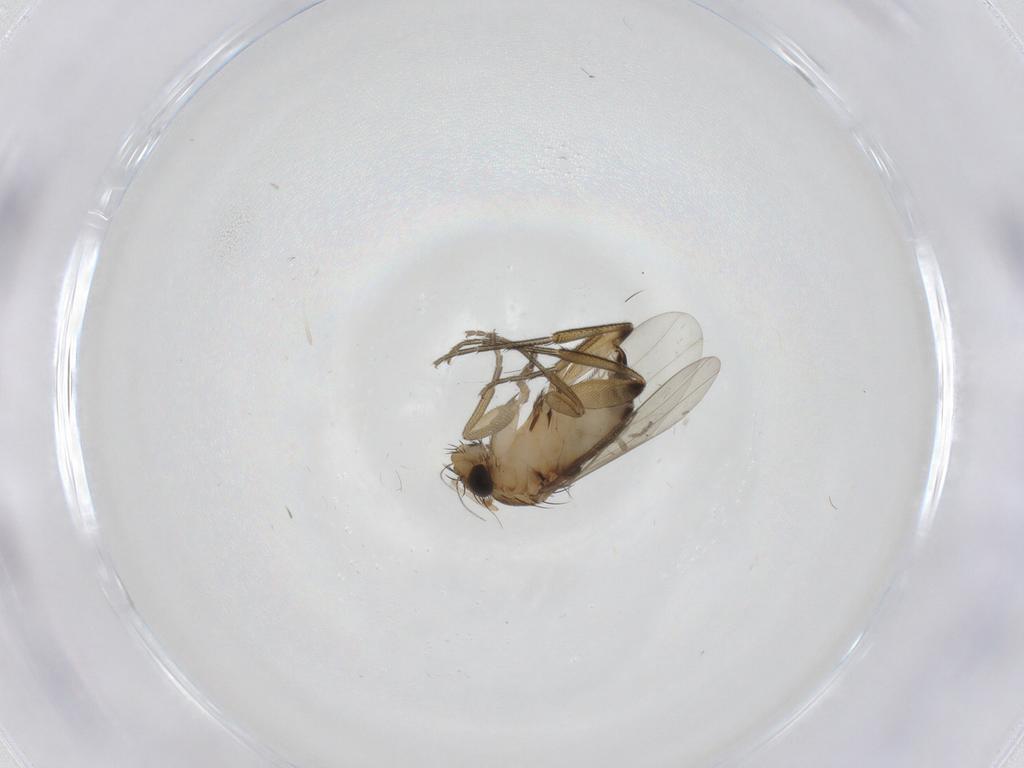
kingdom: Animalia
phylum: Arthropoda
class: Insecta
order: Diptera
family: Phoridae
